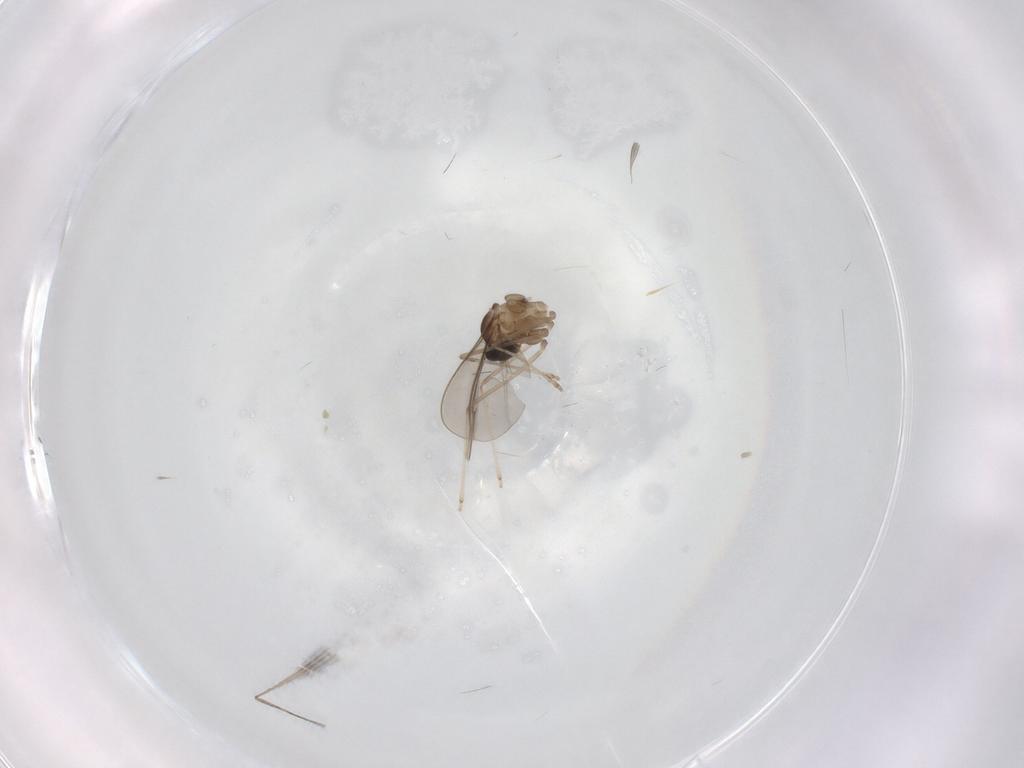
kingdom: Animalia
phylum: Arthropoda
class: Insecta
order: Diptera
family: Cecidomyiidae
